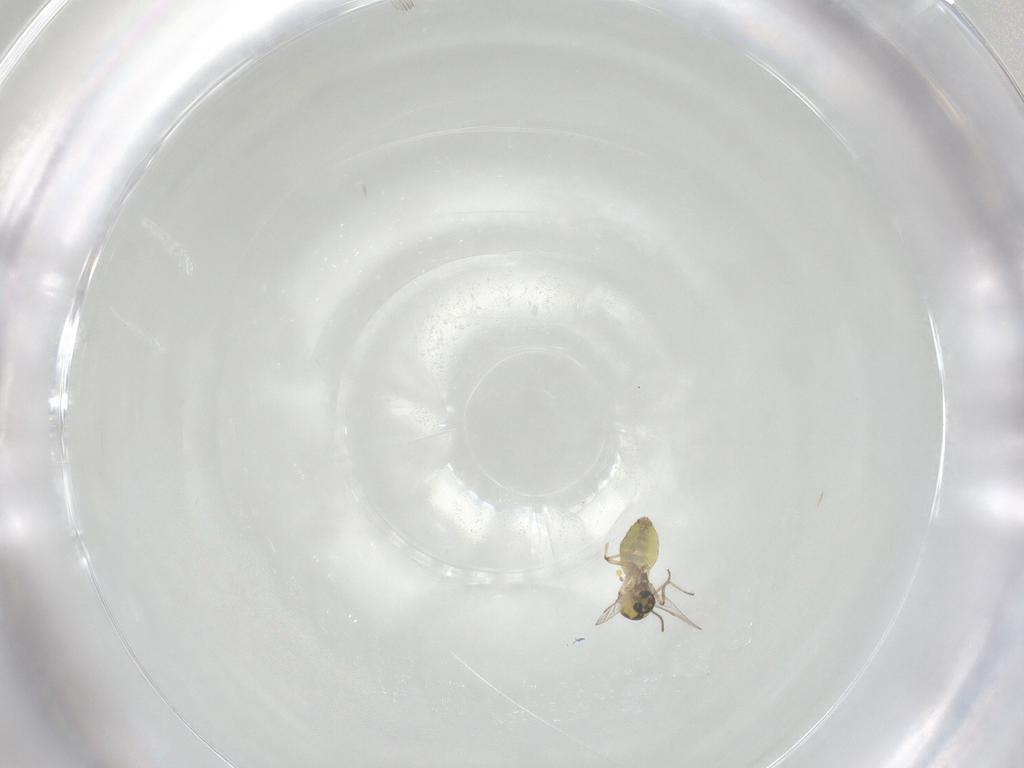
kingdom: Animalia
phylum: Arthropoda
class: Insecta
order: Diptera
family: Ceratopogonidae
